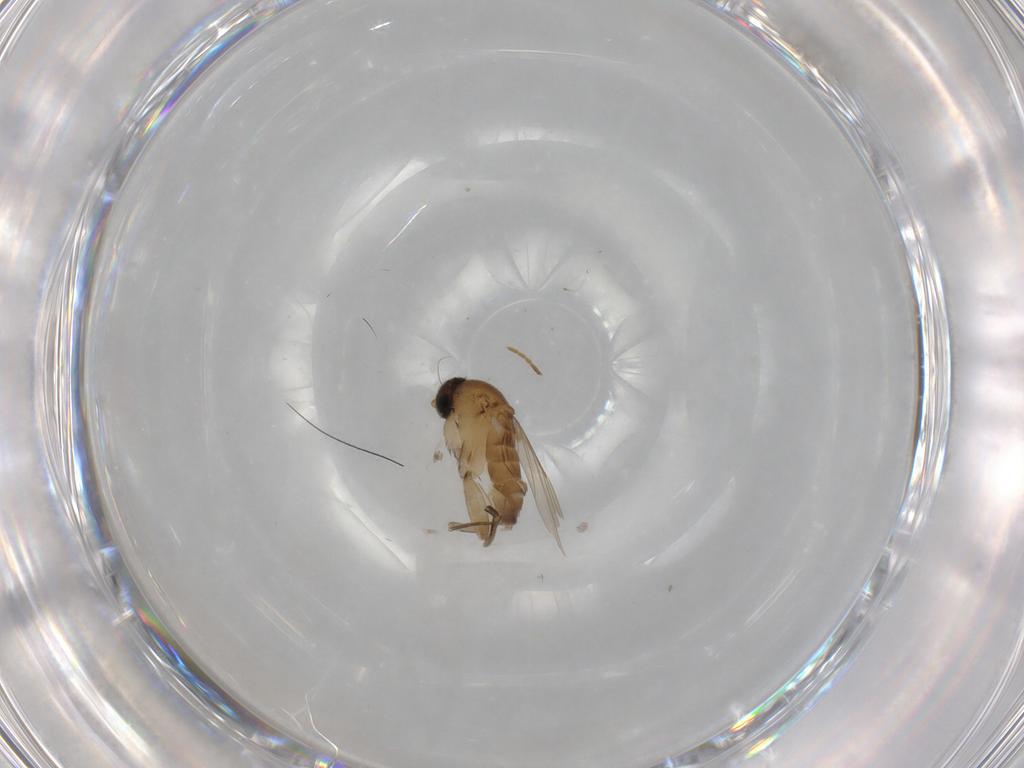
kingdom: Animalia
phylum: Arthropoda
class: Insecta
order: Diptera
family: Phoridae
